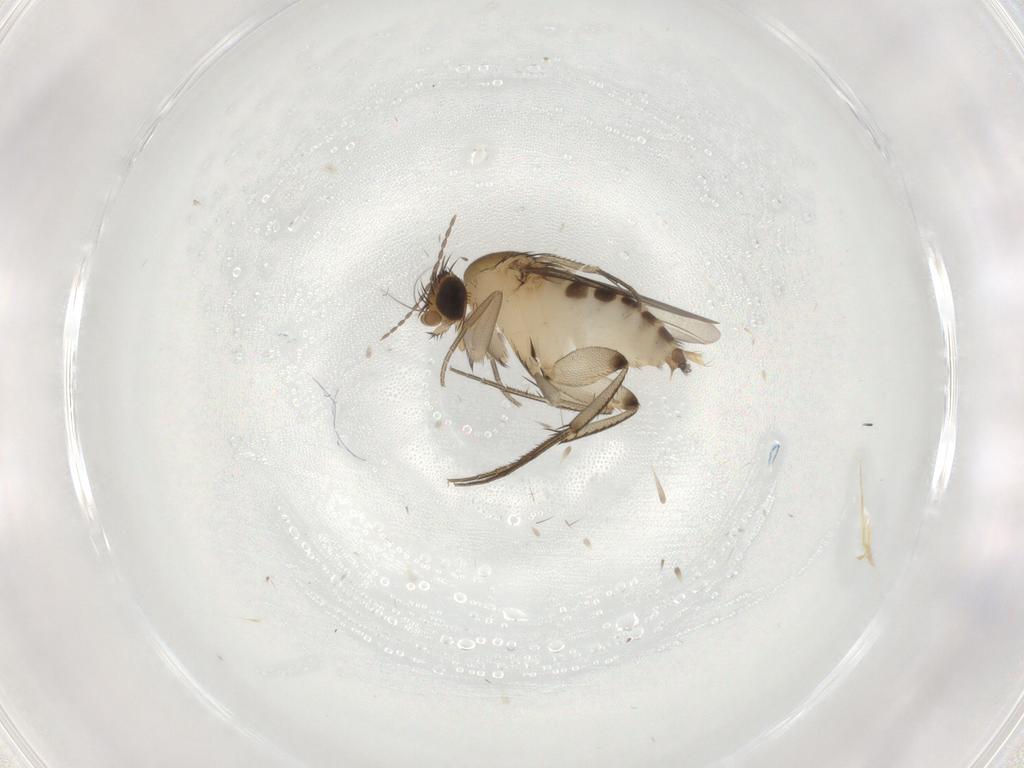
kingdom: Animalia
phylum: Arthropoda
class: Insecta
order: Diptera
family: Phoridae
